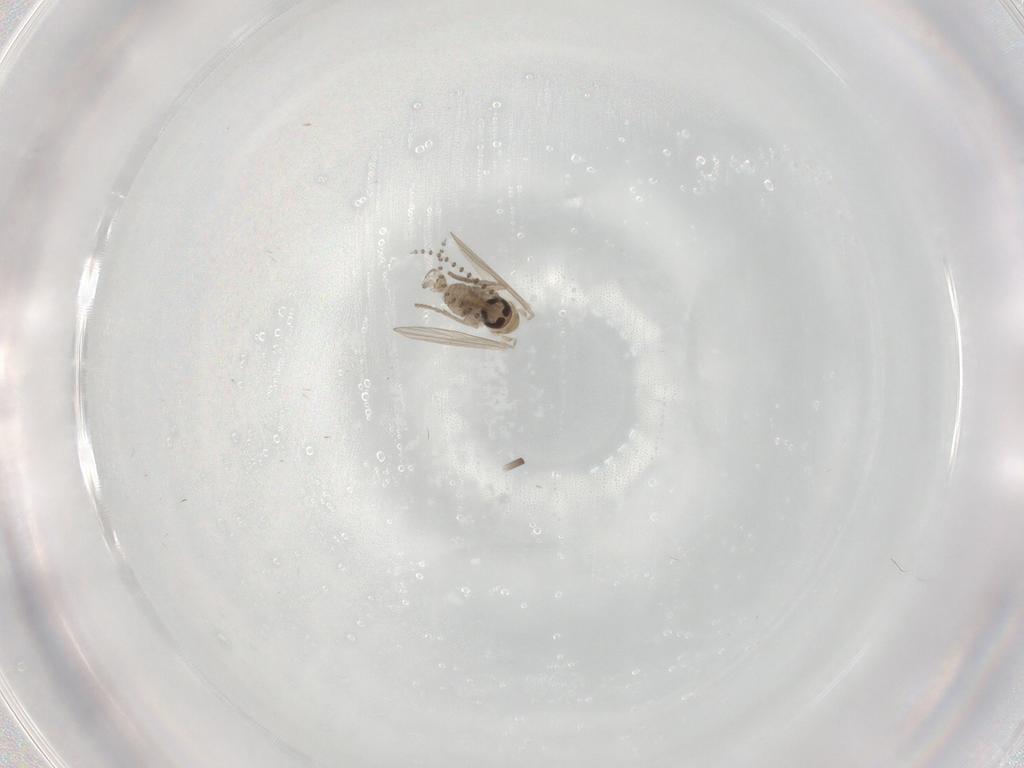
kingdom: Animalia
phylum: Arthropoda
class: Insecta
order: Diptera
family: Psychodidae
